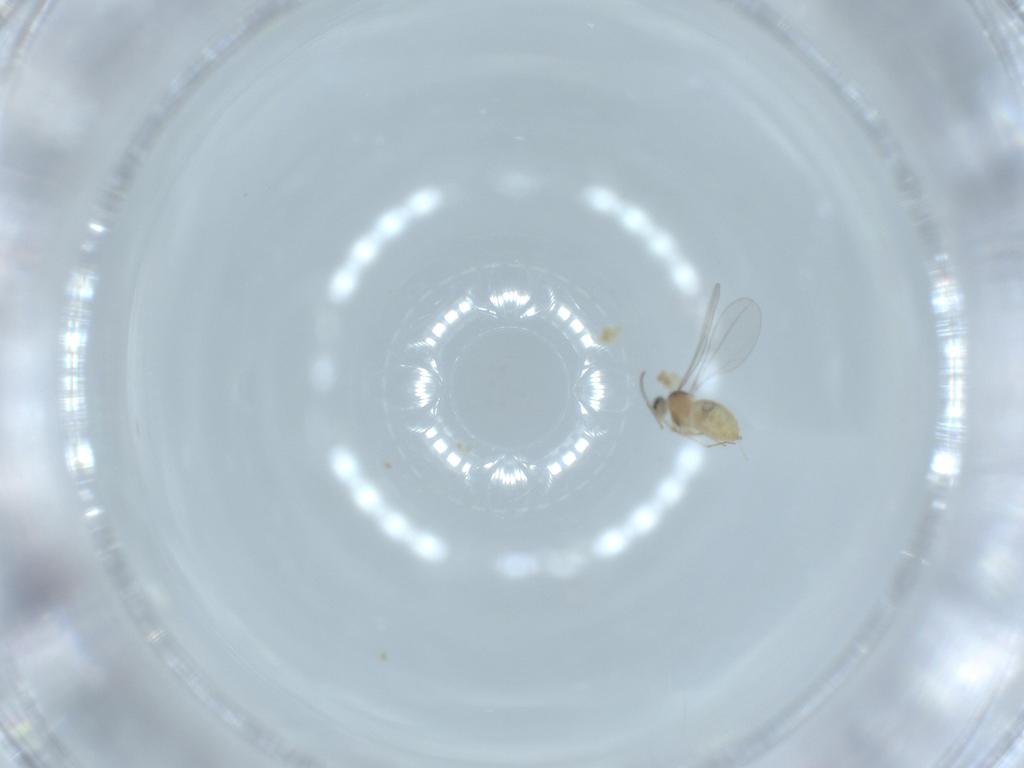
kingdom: Animalia
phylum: Arthropoda
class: Insecta
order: Diptera
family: Cecidomyiidae
